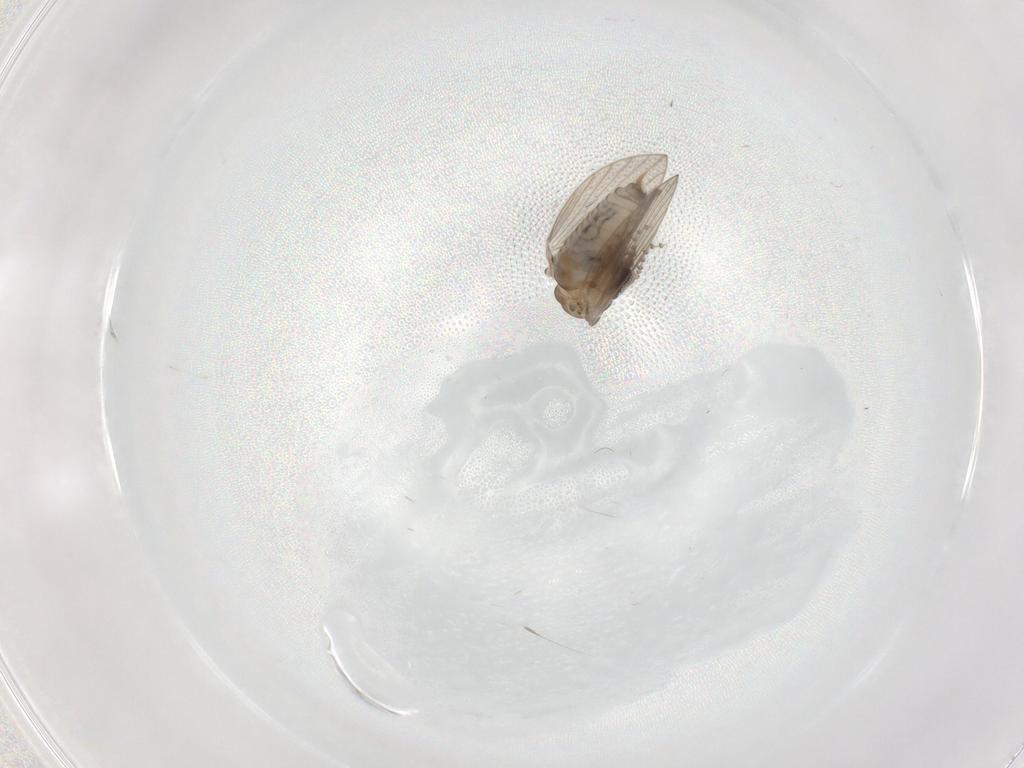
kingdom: Animalia
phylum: Arthropoda
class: Insecta
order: Diptera
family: Psychodidae
